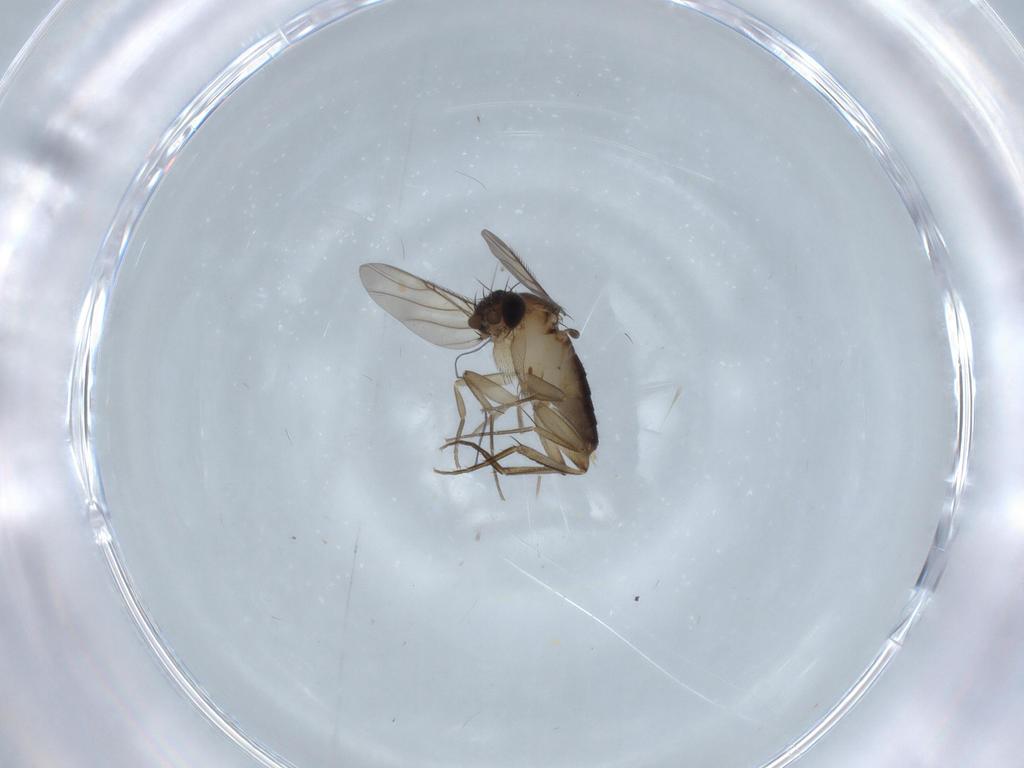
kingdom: Animalia
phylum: Arthropoda
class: Insecta
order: Diptera
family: Phoridae
